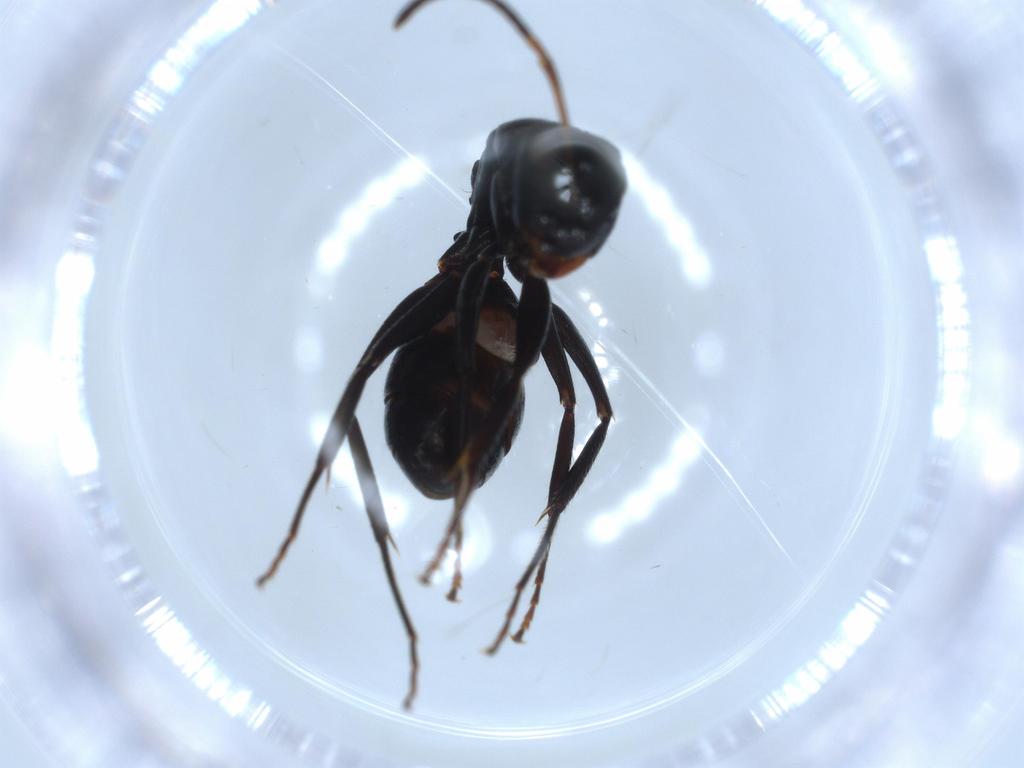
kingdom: Animalia
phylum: Arthropoda
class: Insecta
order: Hymenoptera
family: Formicidae
